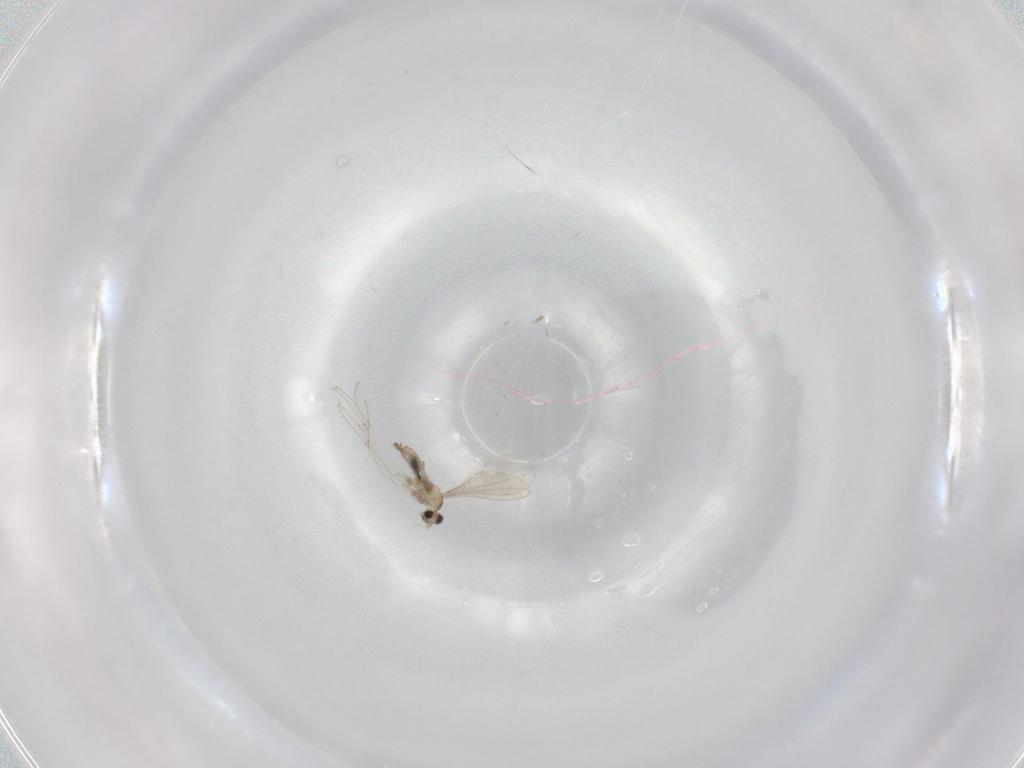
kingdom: Animalia
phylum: Arthropoda
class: Insecta
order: Diptera
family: Cecidomyiidae
